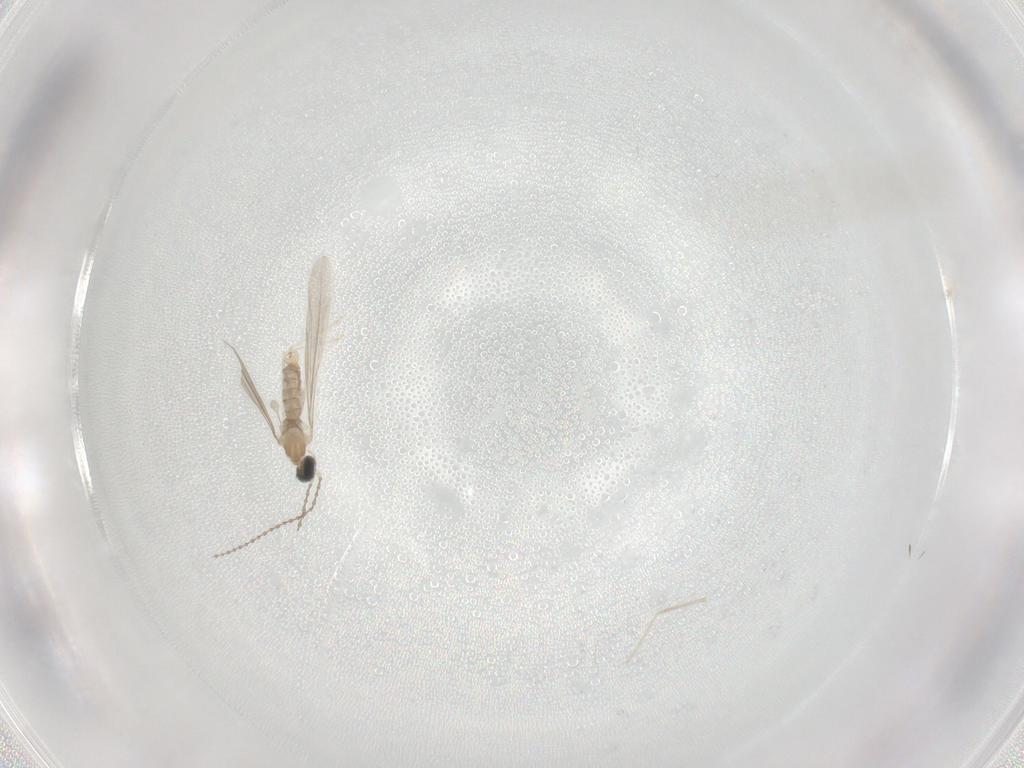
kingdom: Animalia
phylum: Arthropoda
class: Insecta
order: Diptera
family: Cecidomyiidae
